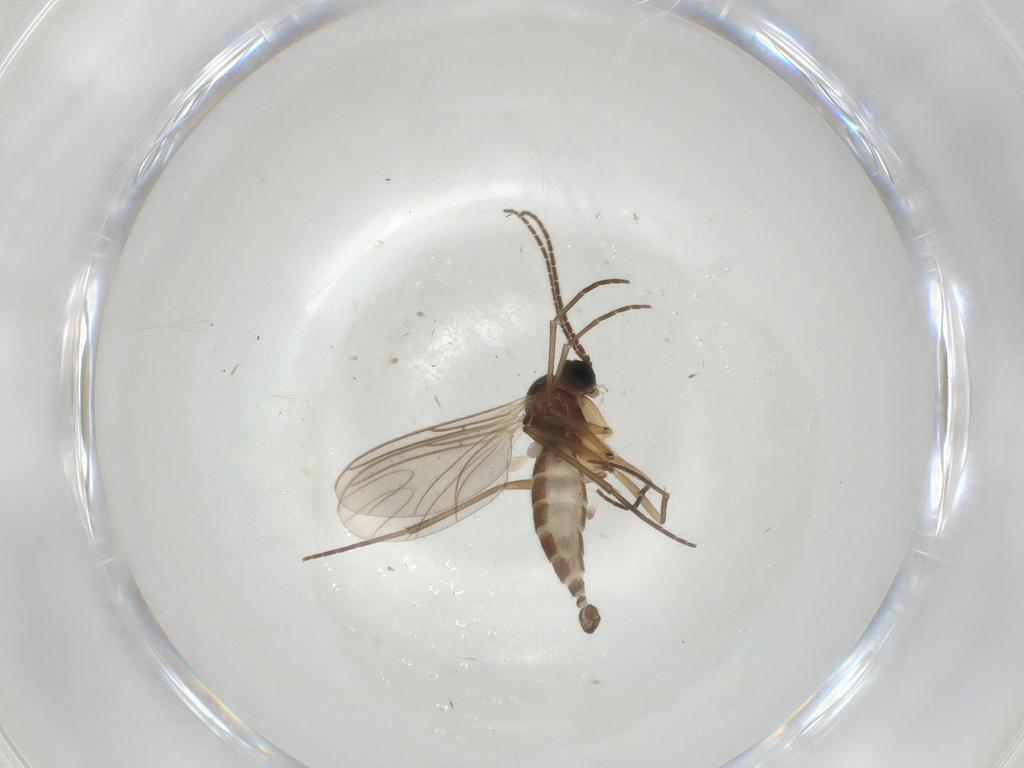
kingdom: Animalia
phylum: Arthropoda
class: Insecta
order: Diptera
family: Sciaridae
